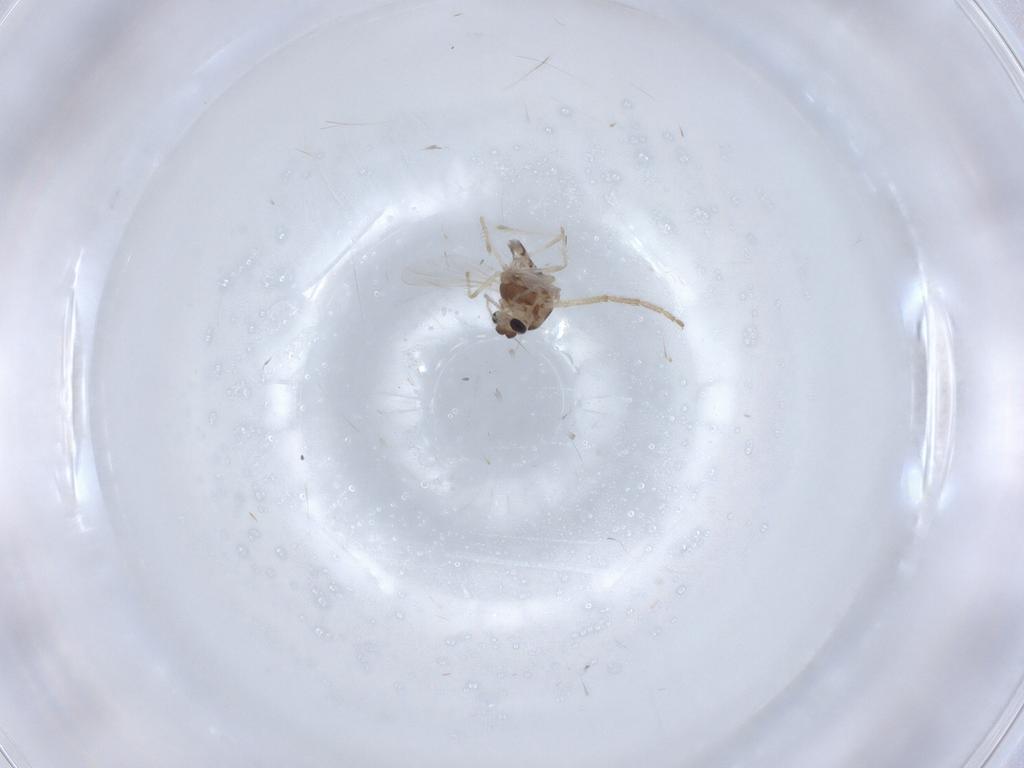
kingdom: Animalia
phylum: Arthropoda
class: Insecta
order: Diptera
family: Chironomidae
